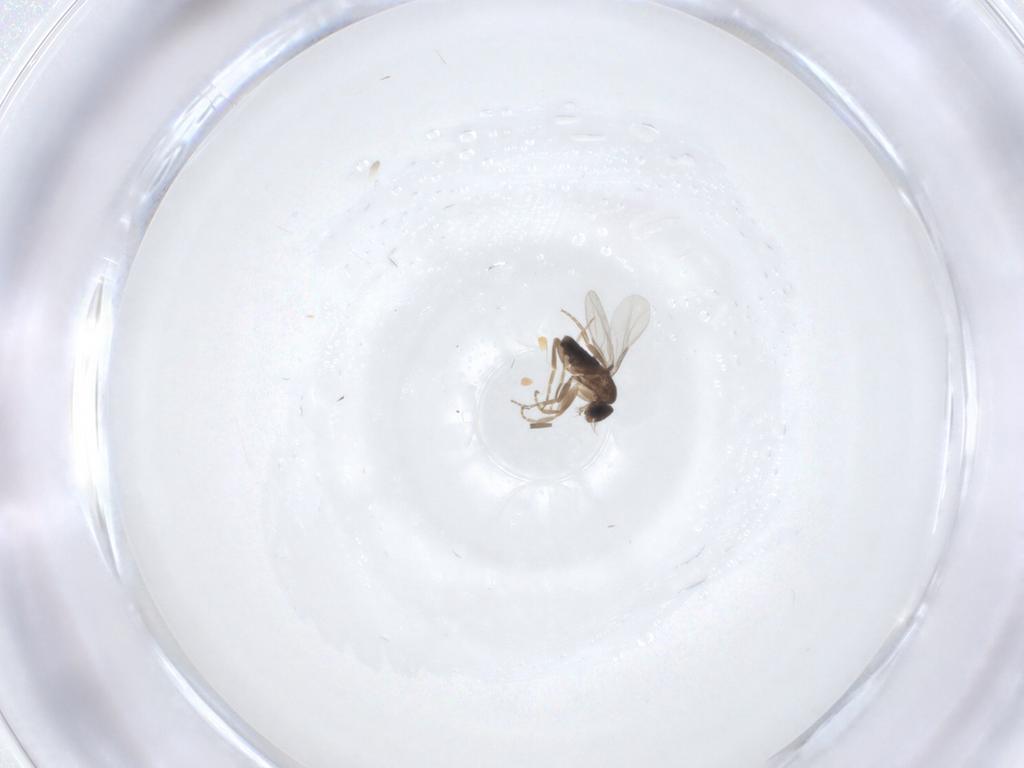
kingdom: Animalia
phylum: Arthropoda
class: Insecta
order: Diptera
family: Phoridae
